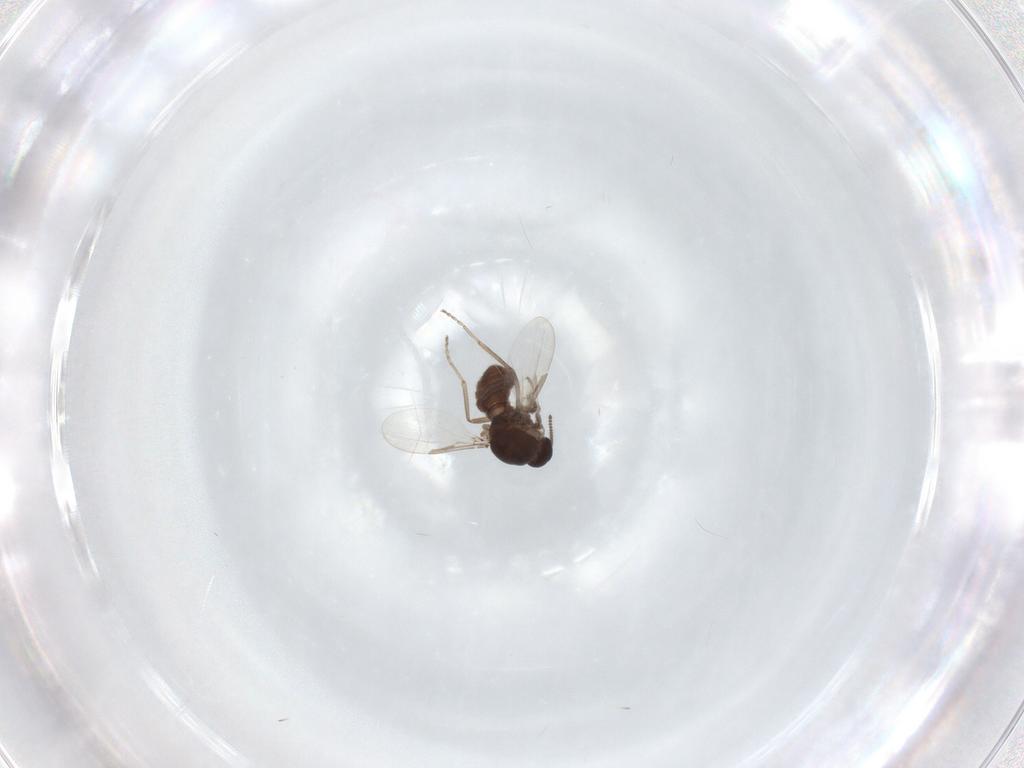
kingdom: Animalia
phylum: Arthropoda
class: Insecta
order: Diptera
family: Ceratopogonidae
